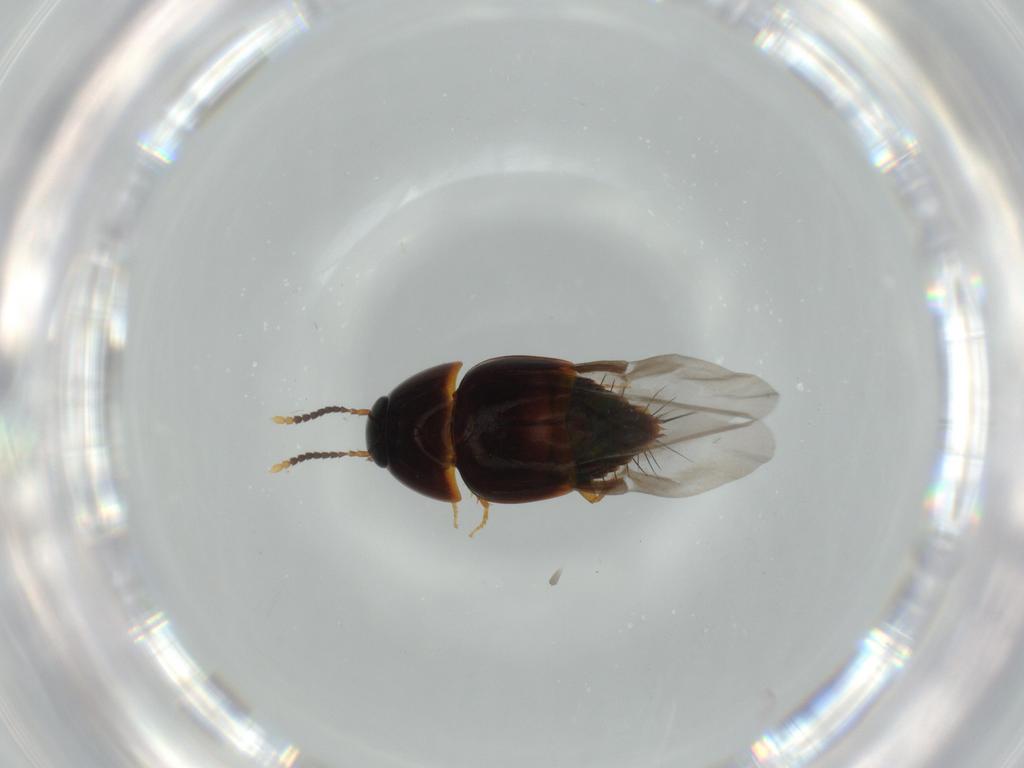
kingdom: Animalia
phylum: Arthropoda
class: Insecta
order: Coleoptera
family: Staphylinidae
